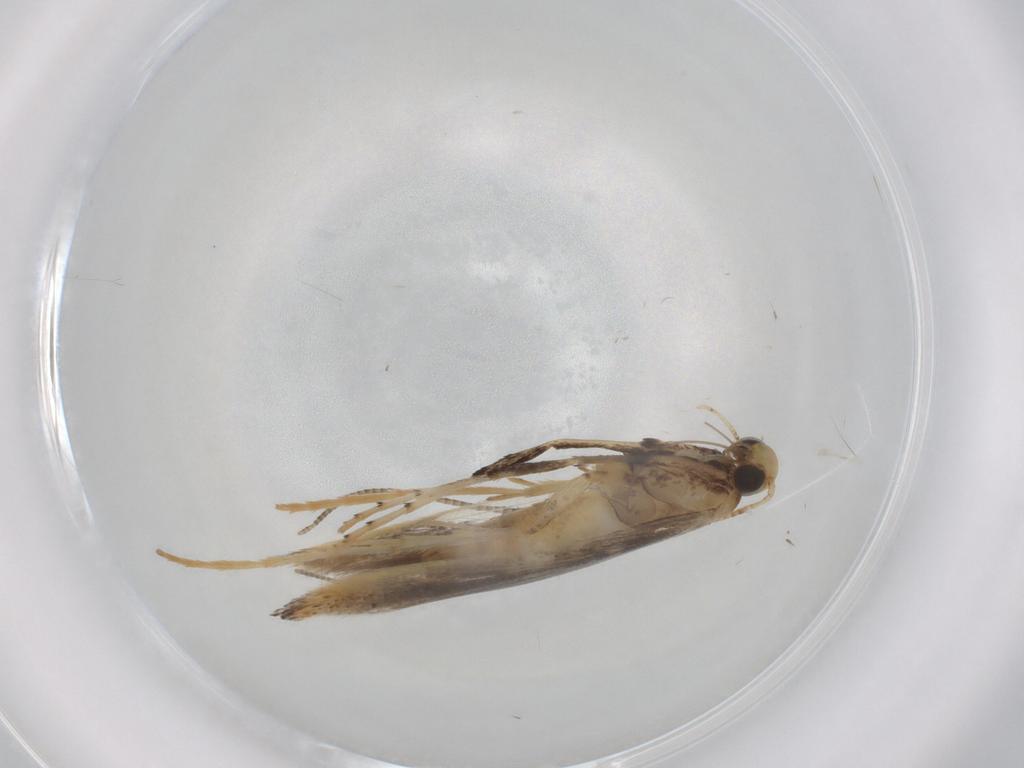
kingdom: Animalia
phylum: Arthropoda
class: Insecta
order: Lepidoptera
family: Gracillariidae
